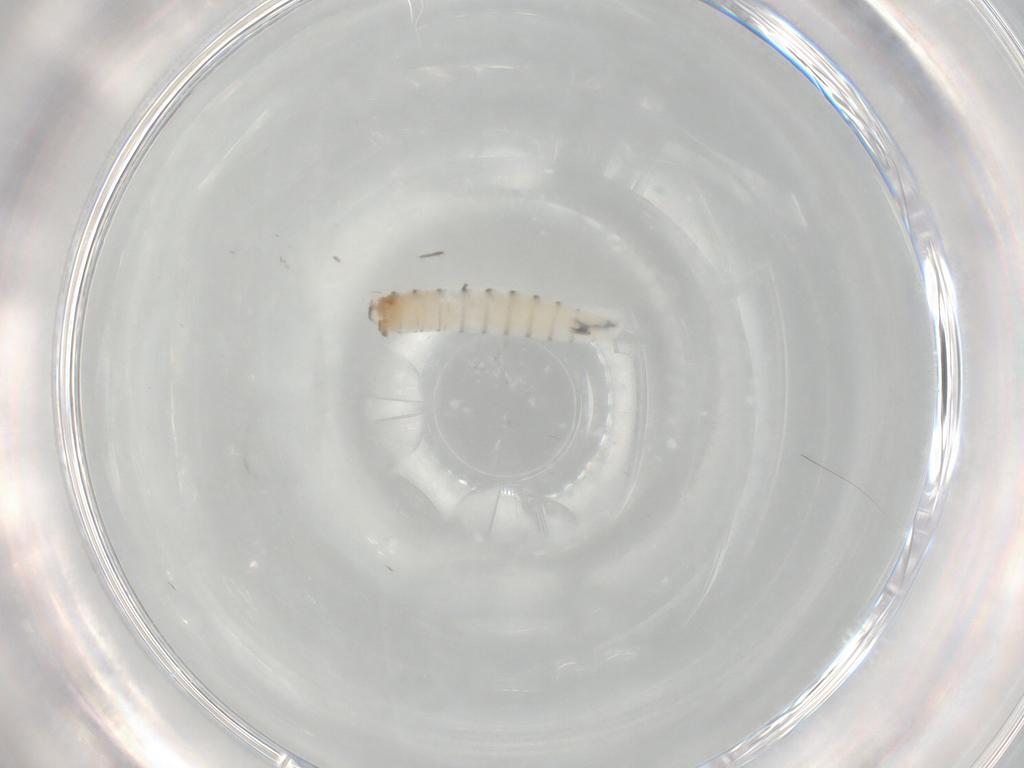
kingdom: Animalia
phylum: Arthropoda
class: Insecta
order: Diptera
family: Sarcophagidae
